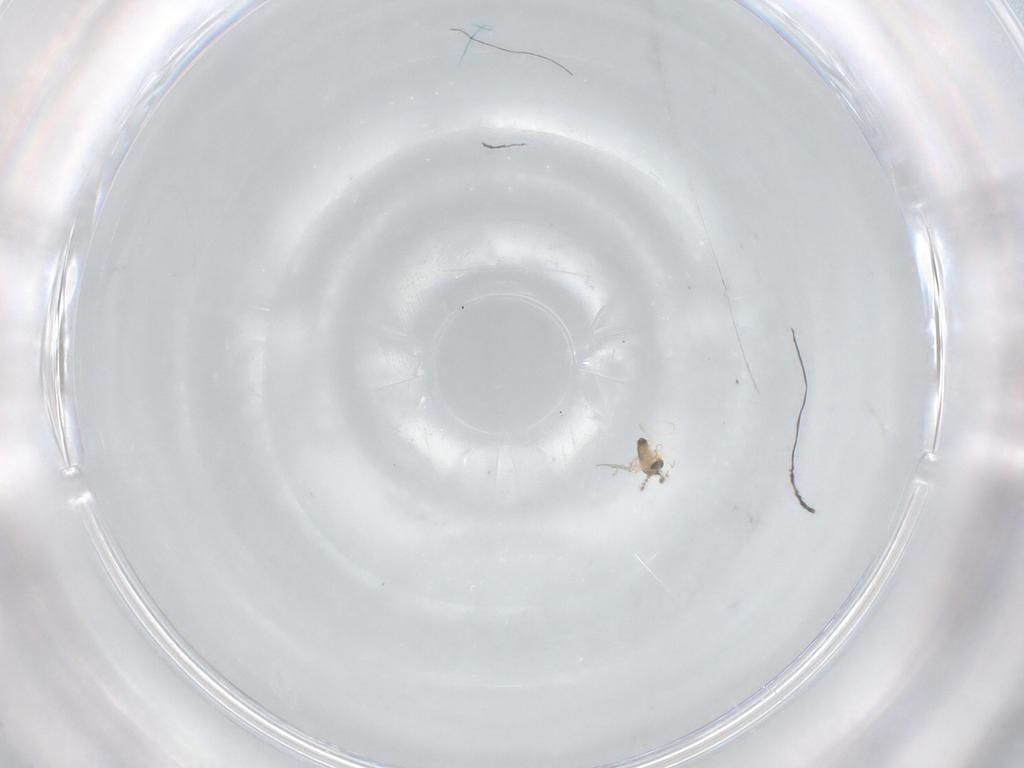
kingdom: Animalia
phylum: Arthropoda
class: Insecta
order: Diptera
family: Cecidomyiidae
